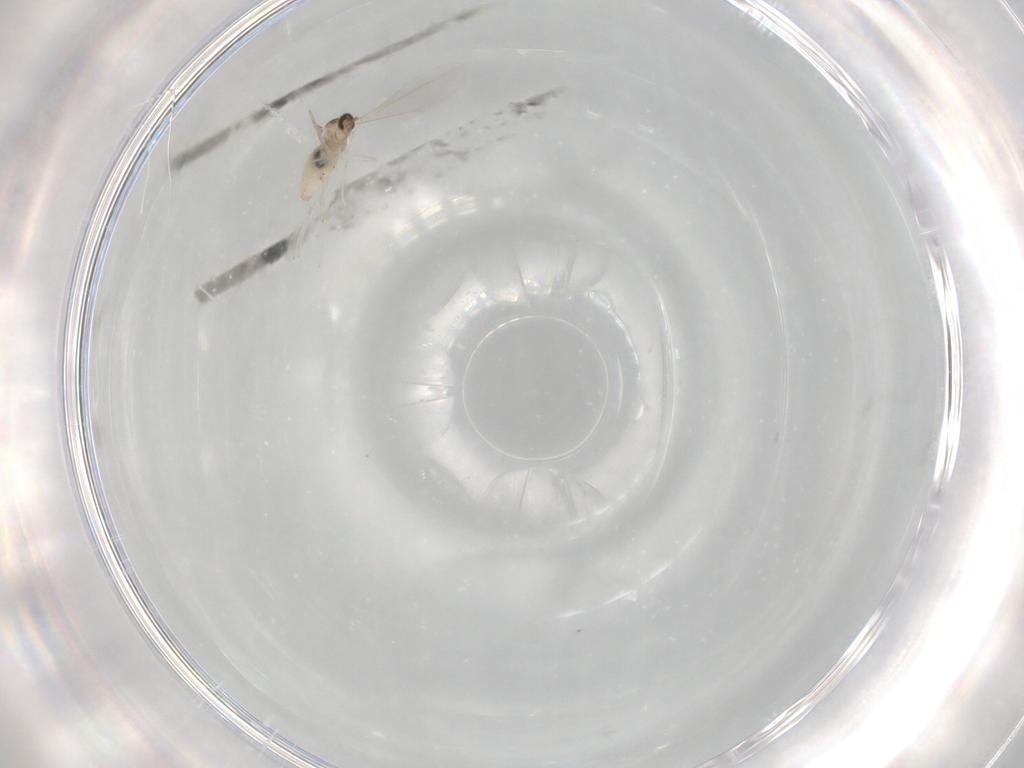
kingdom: Animalia
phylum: Arthropoda
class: Insecta
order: Diptera
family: Cecidomyiidae
